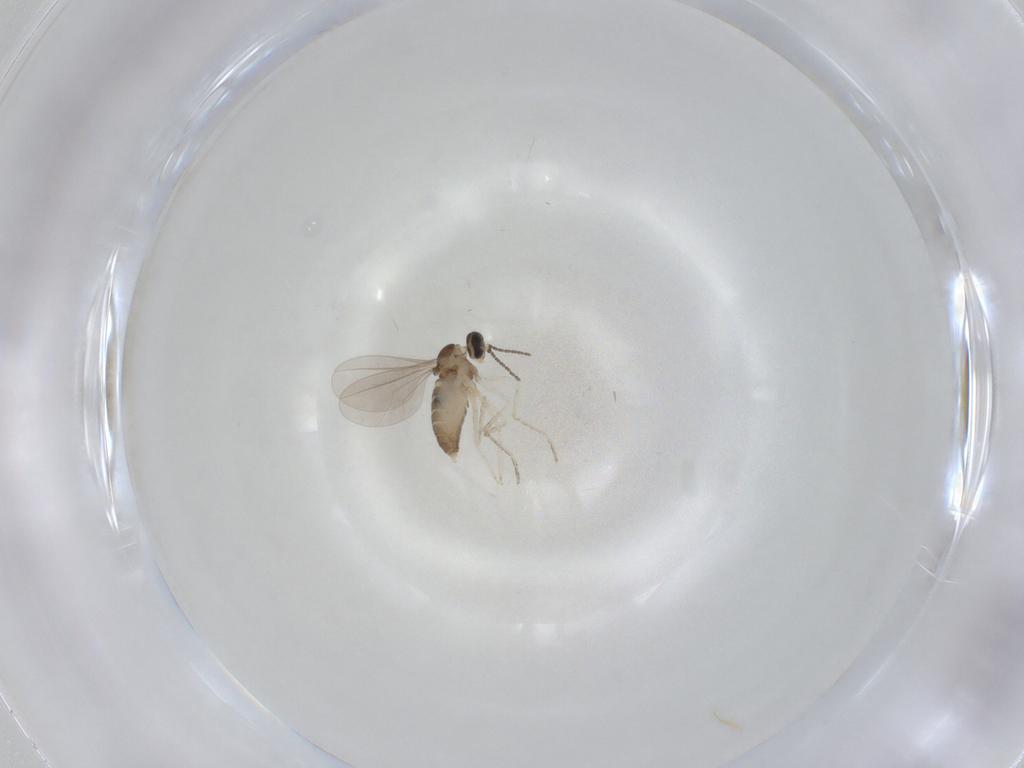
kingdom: Animalia
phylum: Arthropoda
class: Insecta
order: Diptera
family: Cecidomyiidae
